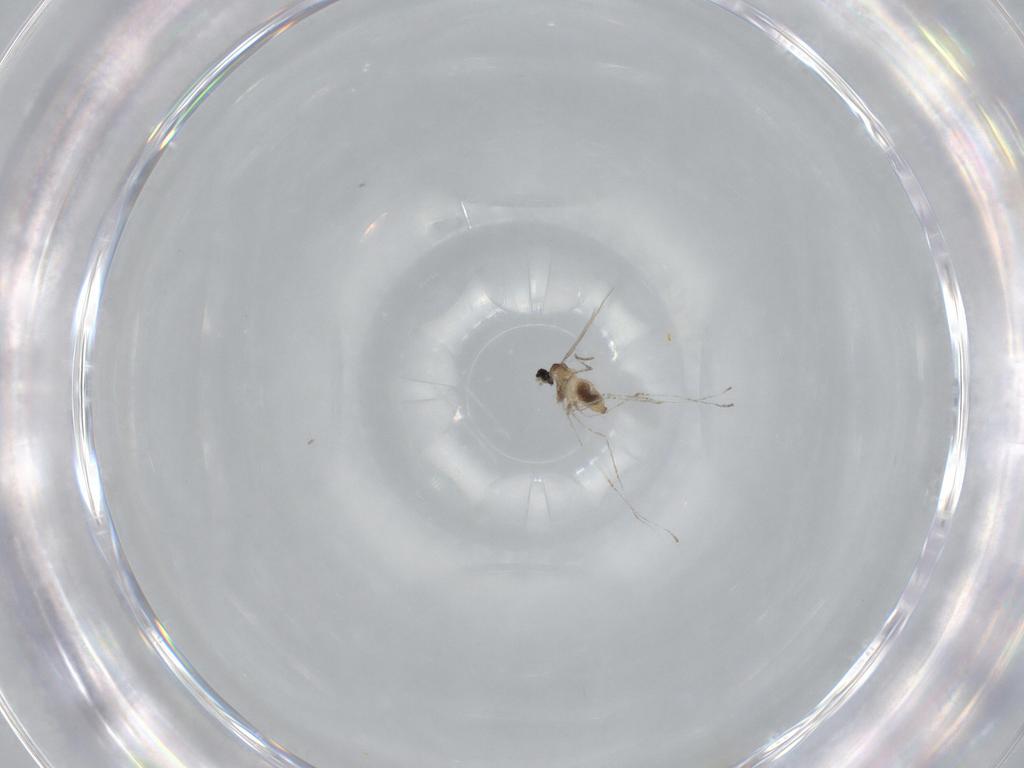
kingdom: Animalia
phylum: Arthropoda
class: Insecta
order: Diptera
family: Cecidomyiidae
